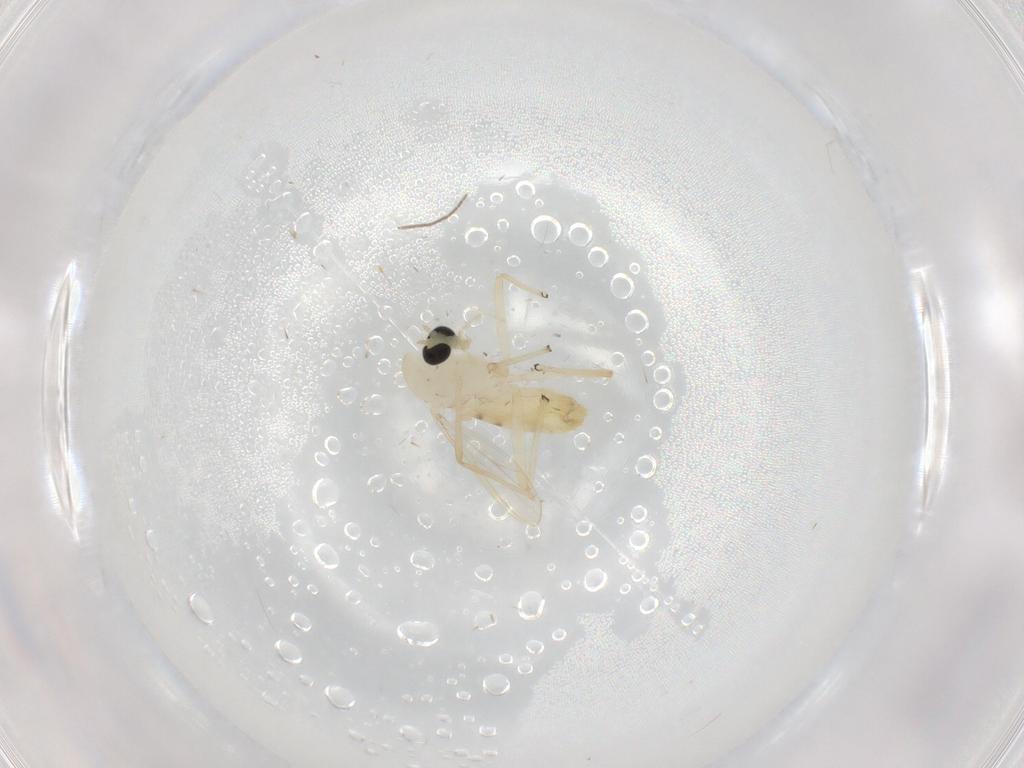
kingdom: Animalia
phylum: Arthropoda
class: Insecta
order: Diptera
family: Chironomidae
